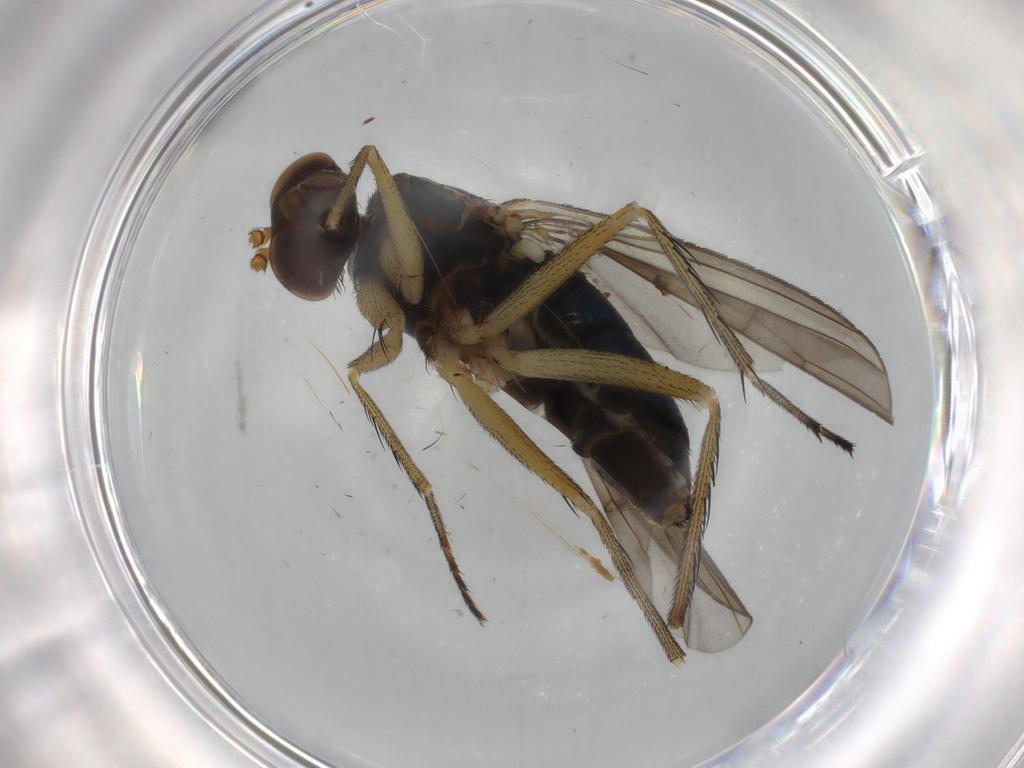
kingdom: Animalia
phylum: Arthropoda
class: Insecta
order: Diptera
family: Dolichopodidae
